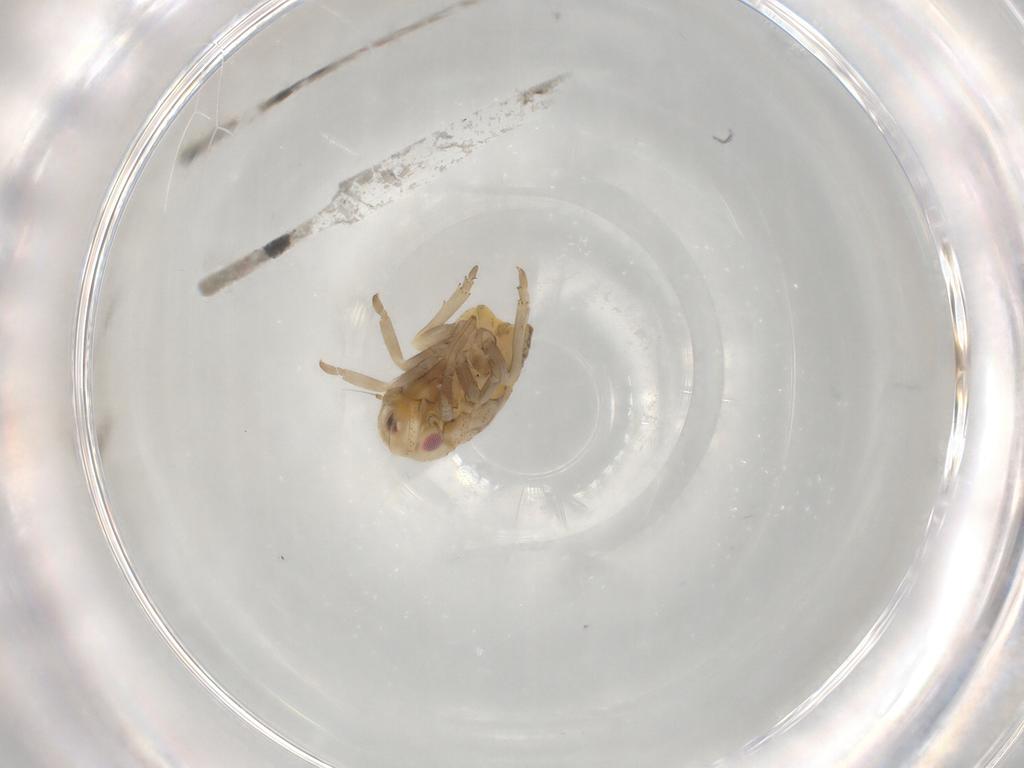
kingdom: Animalia
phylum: Arthropoda
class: Insecta
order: Hemiptera
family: Flatidae
